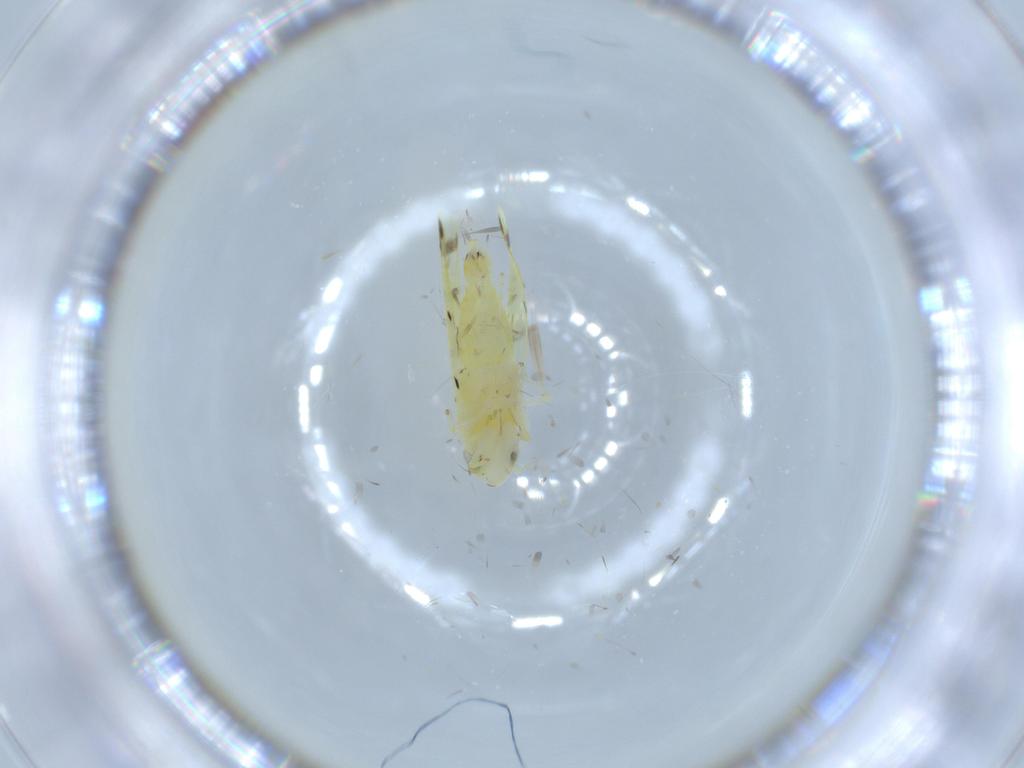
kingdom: Animalia
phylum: Arthropoda
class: Insecta
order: Hemiptera
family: Cicadellidae
